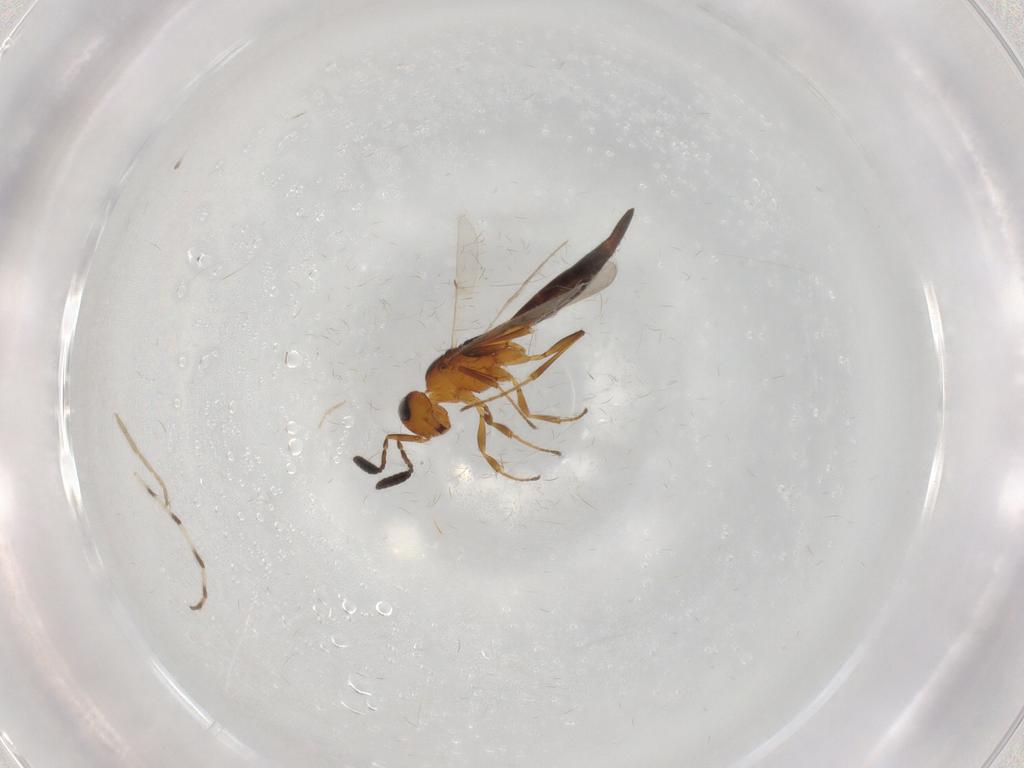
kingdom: Animalia
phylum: Arthropoda
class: Insecta
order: Hymenoptera
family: Scelionidae
